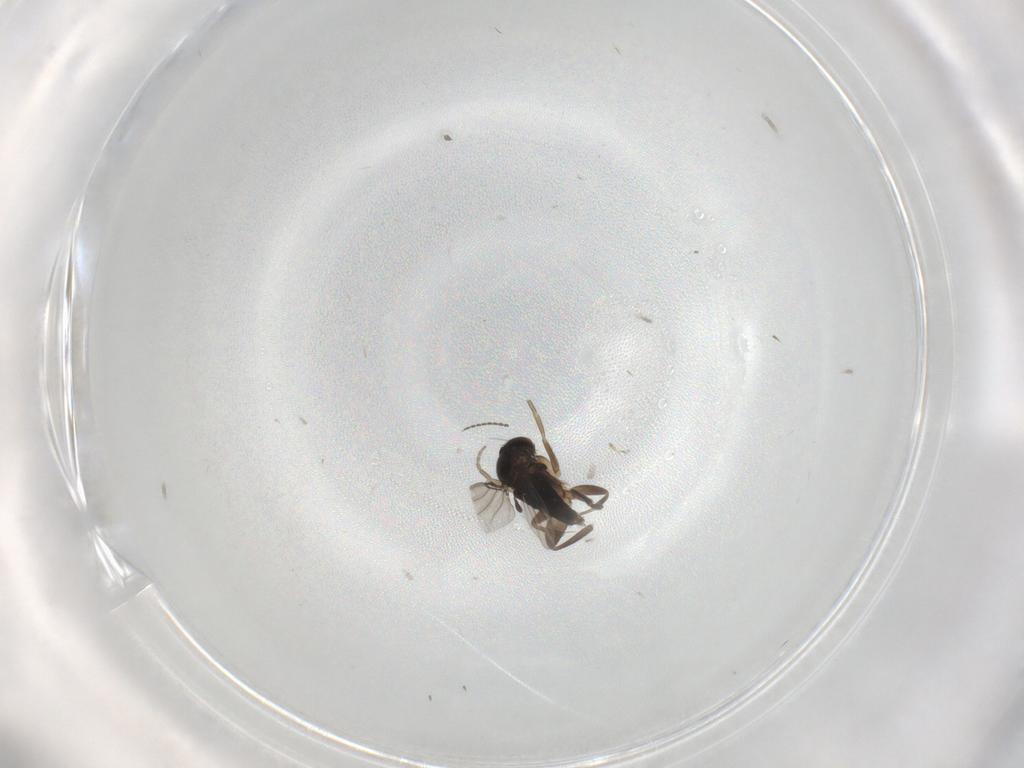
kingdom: Animalia
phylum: Arthropoda
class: Insecta
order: Diptera
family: Phoridae
